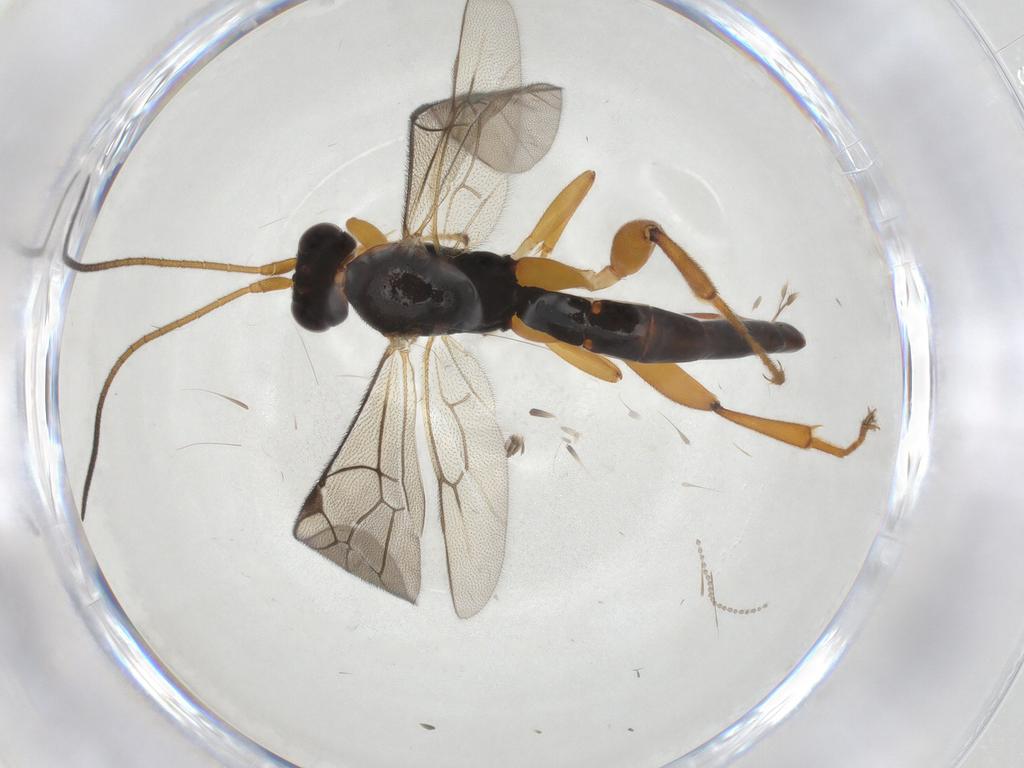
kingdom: Animalia
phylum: Arthropoda
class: Insecta
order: Hymenoptera
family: Ichneumonidae
